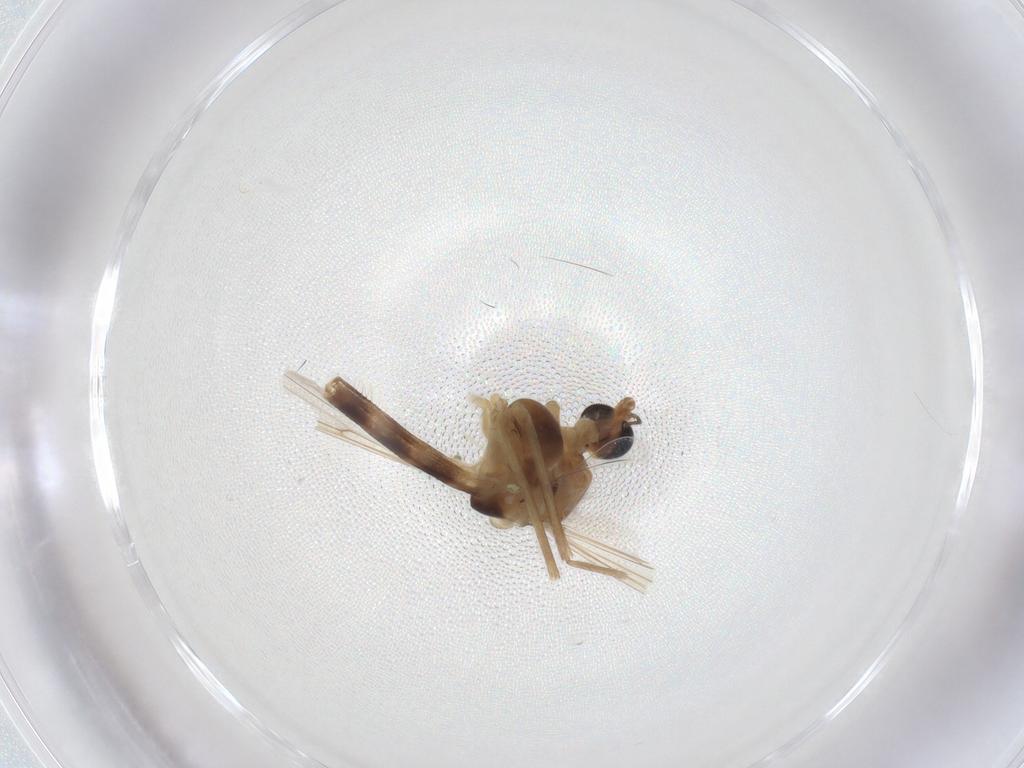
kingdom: Animalia
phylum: Arthropoda
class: Insecta
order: Diptera
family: Chironomidae
